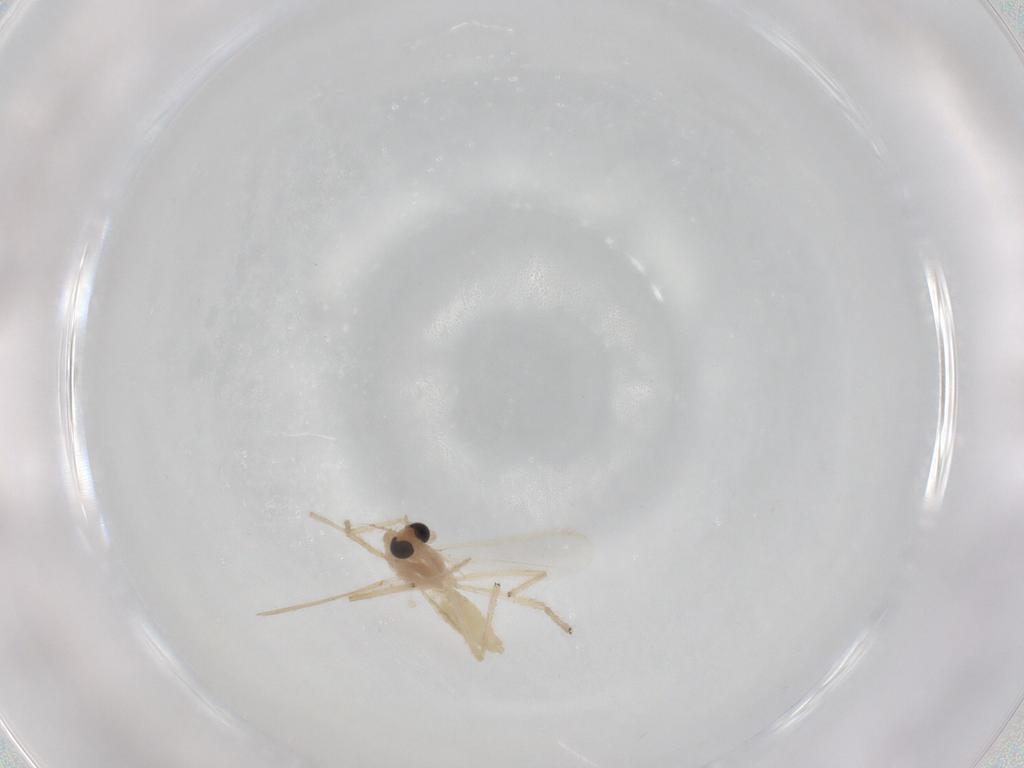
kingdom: Animalia
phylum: Arthropoda
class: Insecta
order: Diptera
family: Chironomidae
